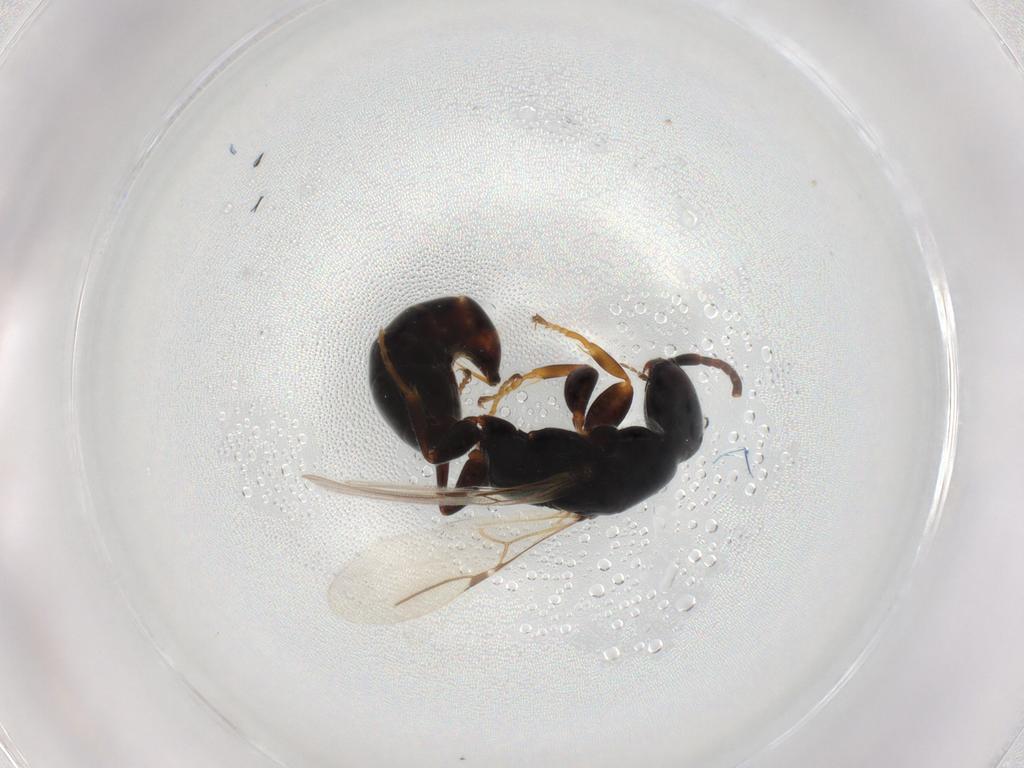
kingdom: Animalia
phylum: Arthropoda
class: Insecta
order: Hymenoptera
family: Bethylidae
